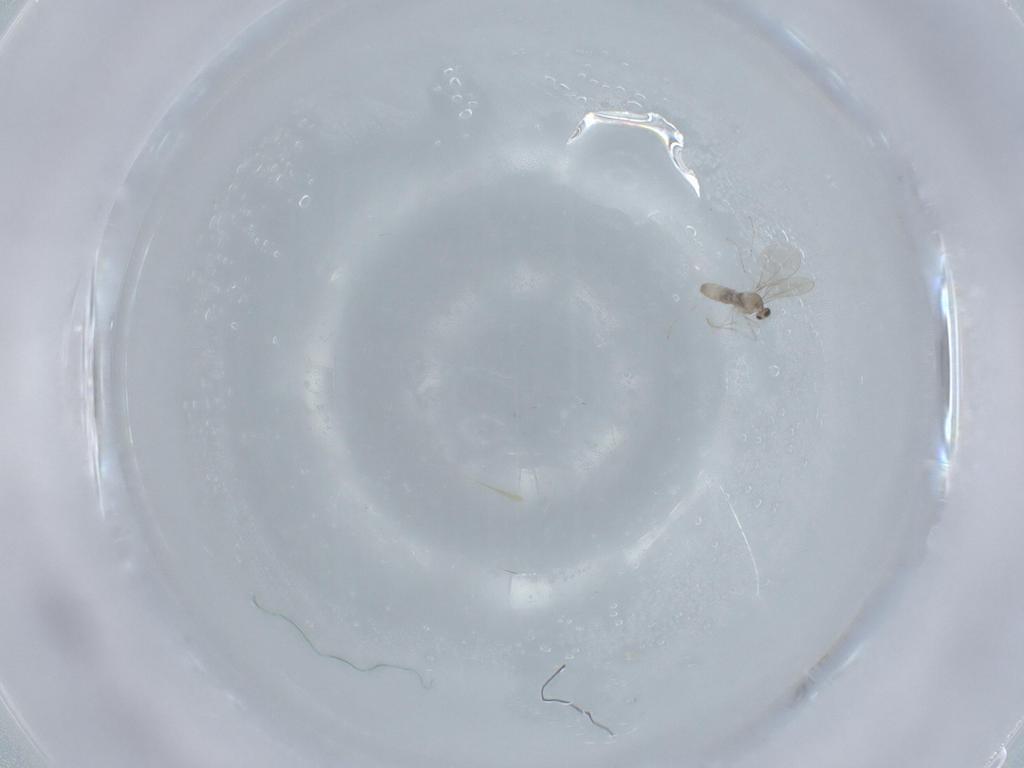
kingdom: Animalia
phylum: Arthropoda
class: Insecta
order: Diptera
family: Cecidomyiidae
